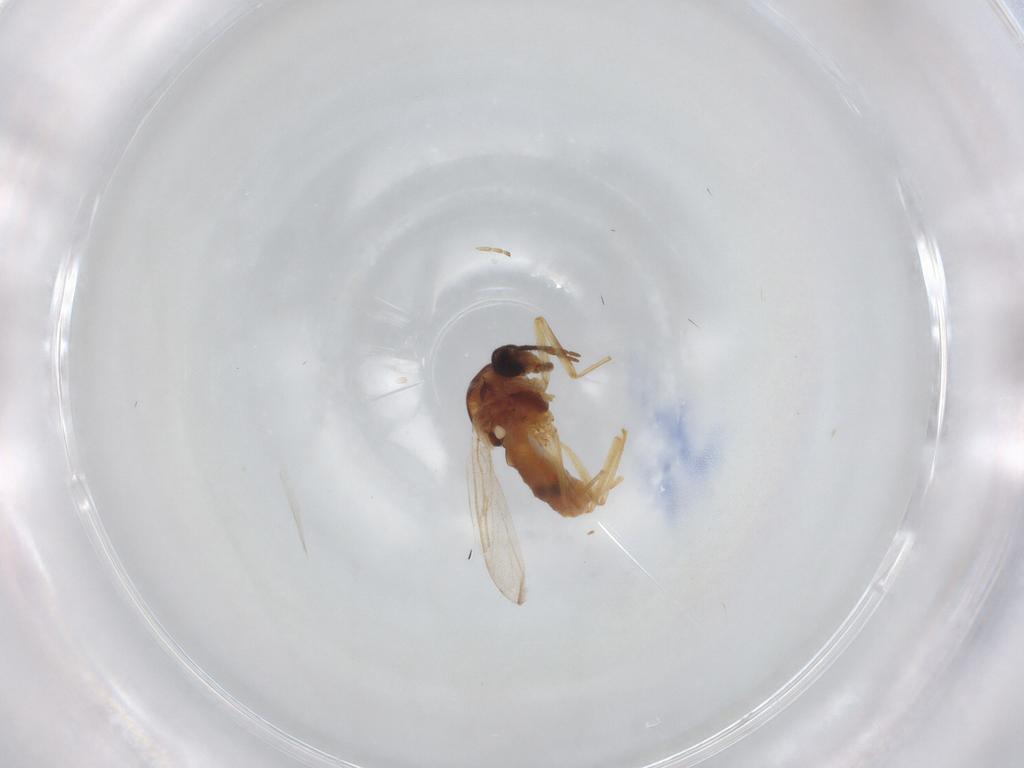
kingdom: Animalia
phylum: Arthropoda
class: Insecta
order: Diptera
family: Ceratopogonidae
